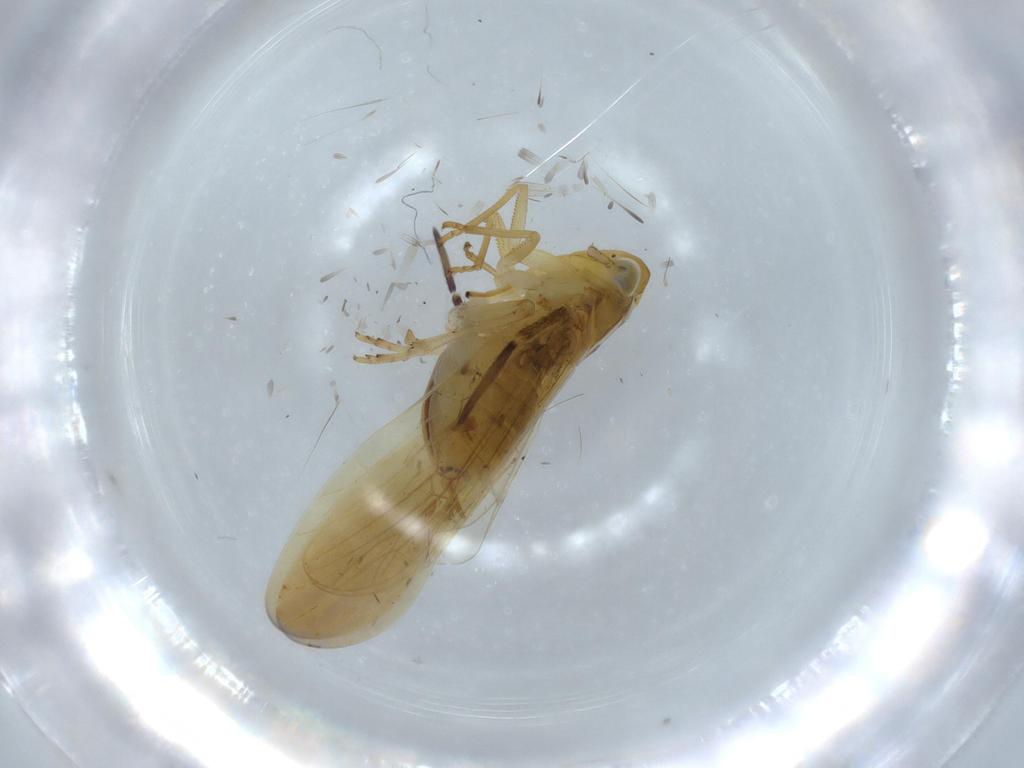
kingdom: Animalia
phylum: Arthropoda
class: Insecta
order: Hemiptera
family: Delphacidae
